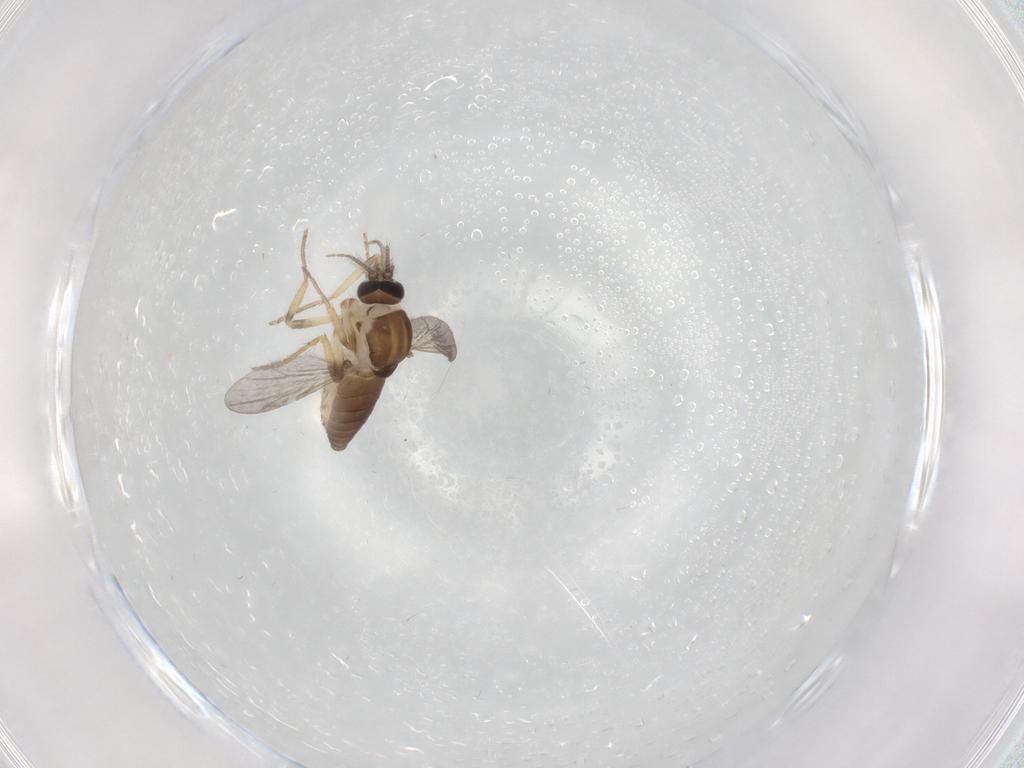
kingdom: Animalia
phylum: Arthropoda
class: Insecta
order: Diptera
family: Ceratopogonidae
